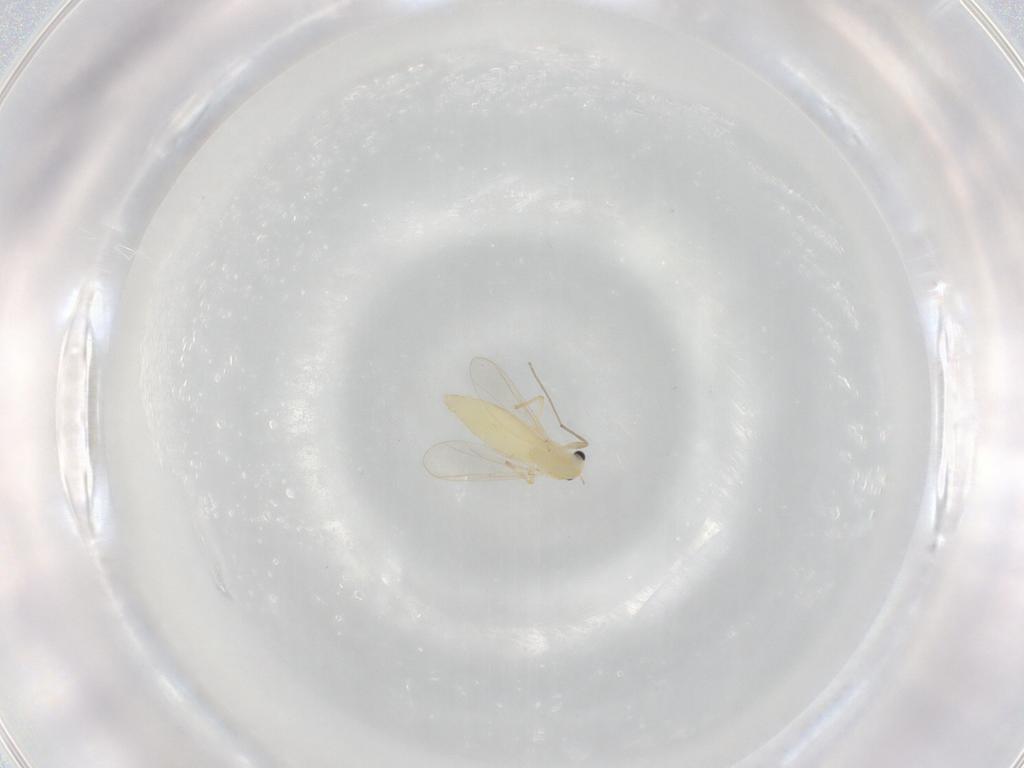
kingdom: Animalia
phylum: Arthropoda
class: Insecta
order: Diptera
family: Chironomidae
